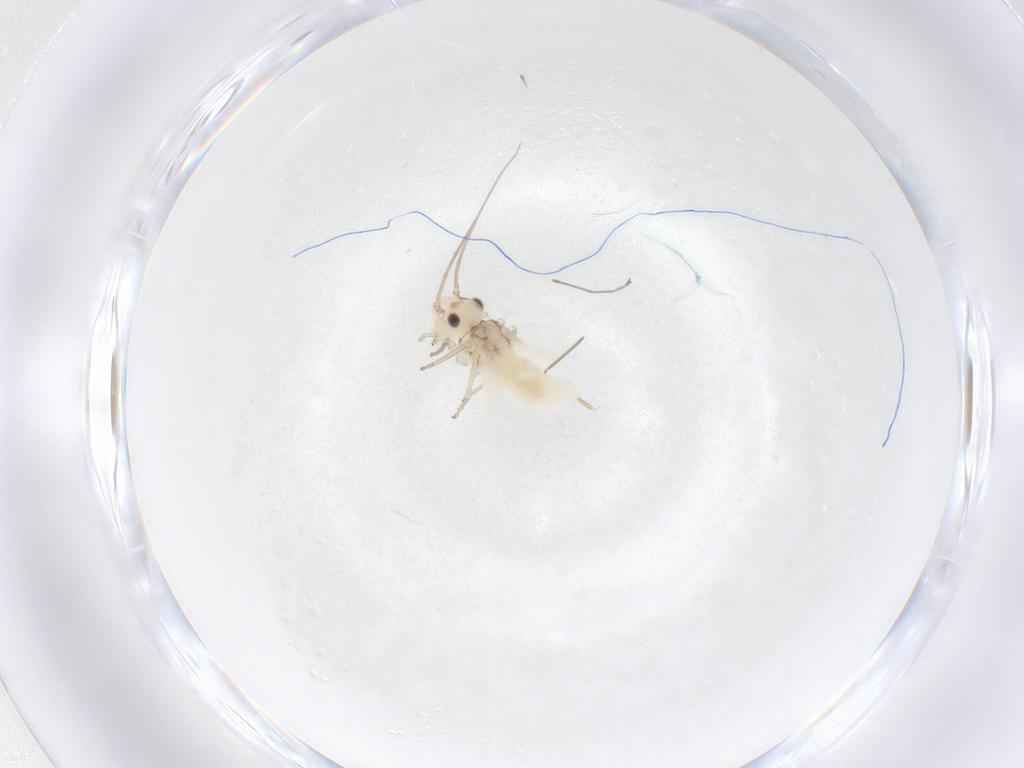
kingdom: Animalia
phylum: Arthropoda
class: Insecta
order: Psocodea
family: Caeciliusidae
